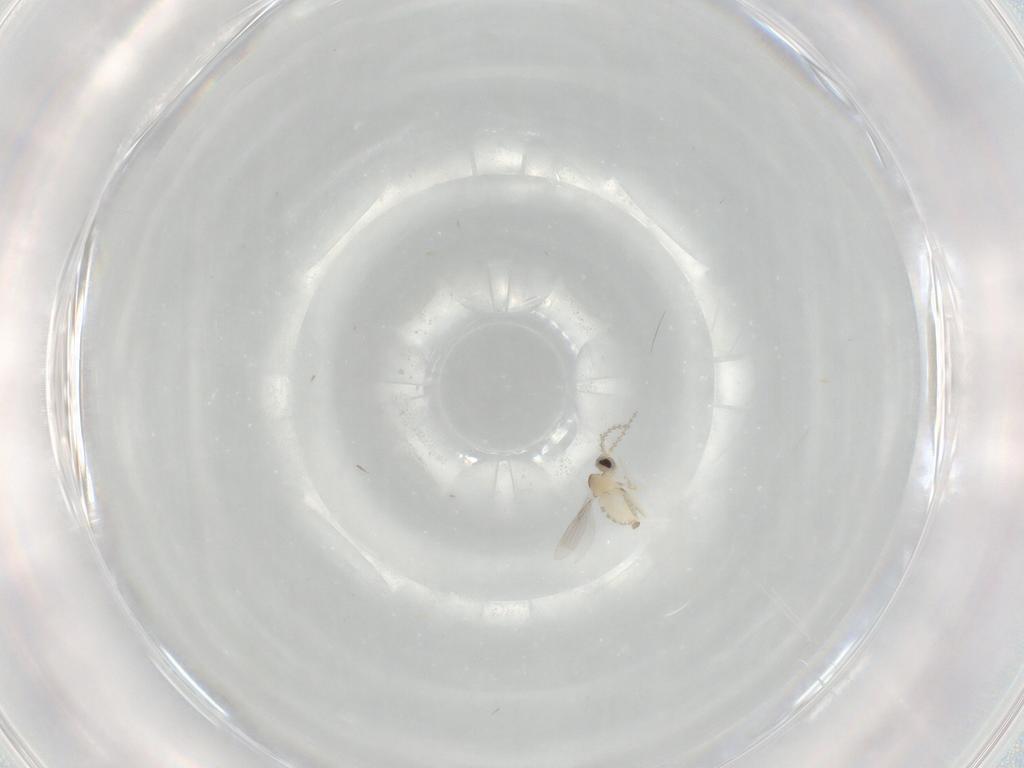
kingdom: Animalia
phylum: Arthropoda
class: Insecta
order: Diptera
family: Cecidomyiidae
